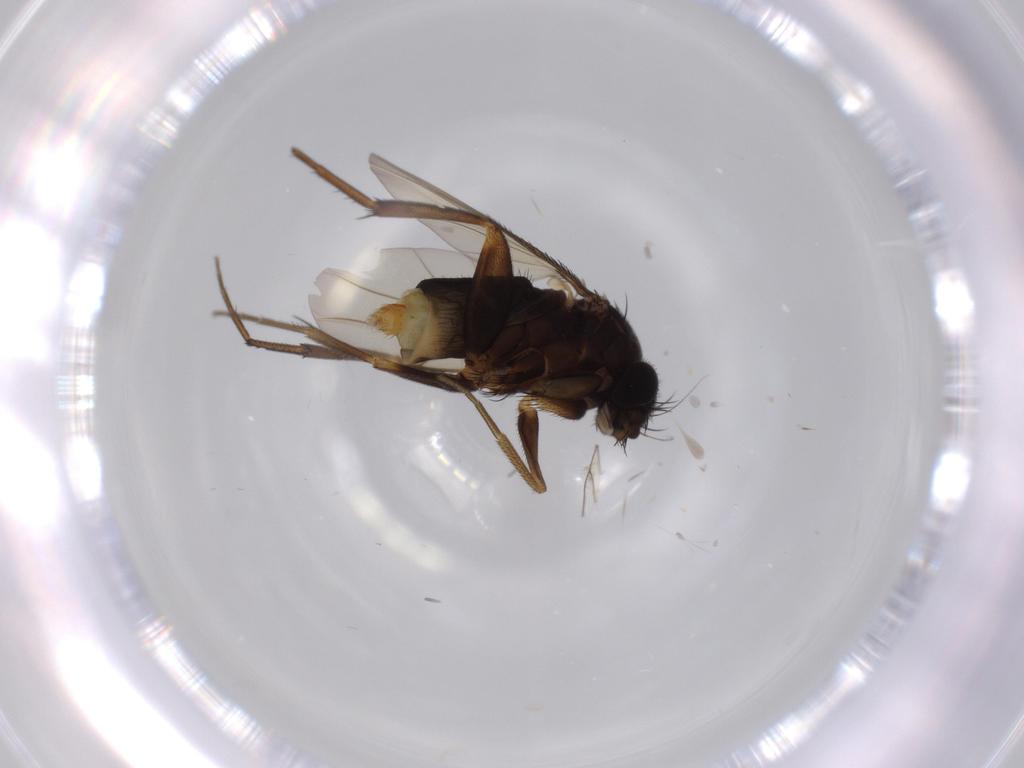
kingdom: Animalia
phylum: Arthropoda
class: Insecta
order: Diptera
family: Phoridae
